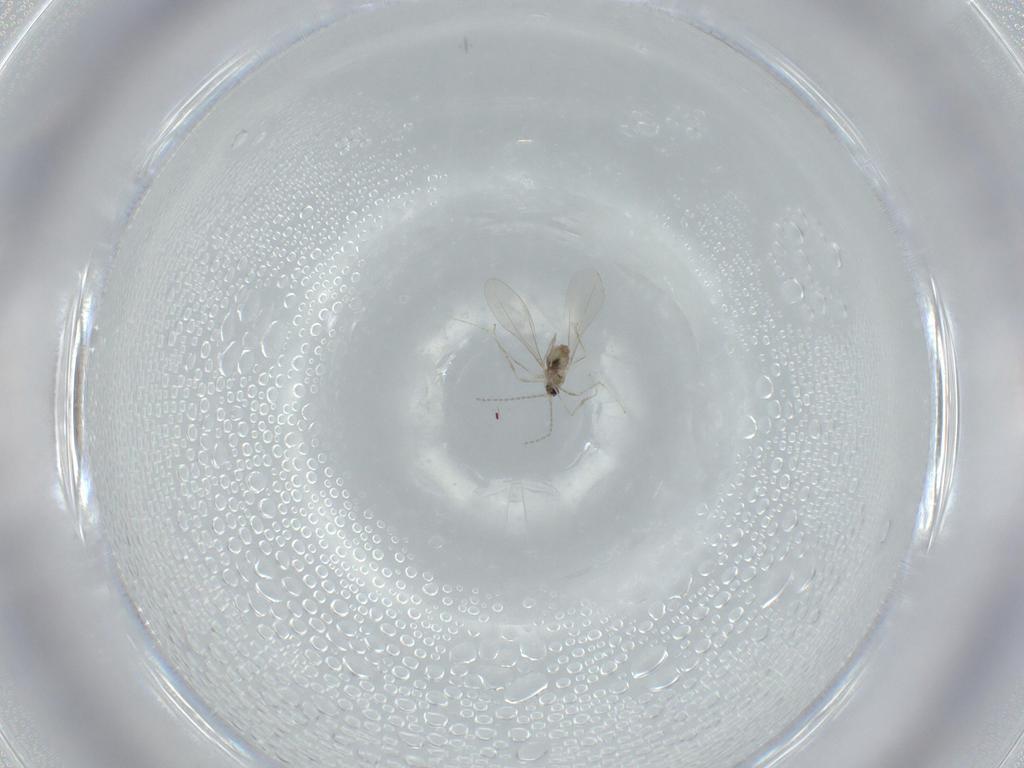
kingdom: Animalia
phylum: Arthropoda
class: Insecta
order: Diptera
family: Cecidomyiidae
